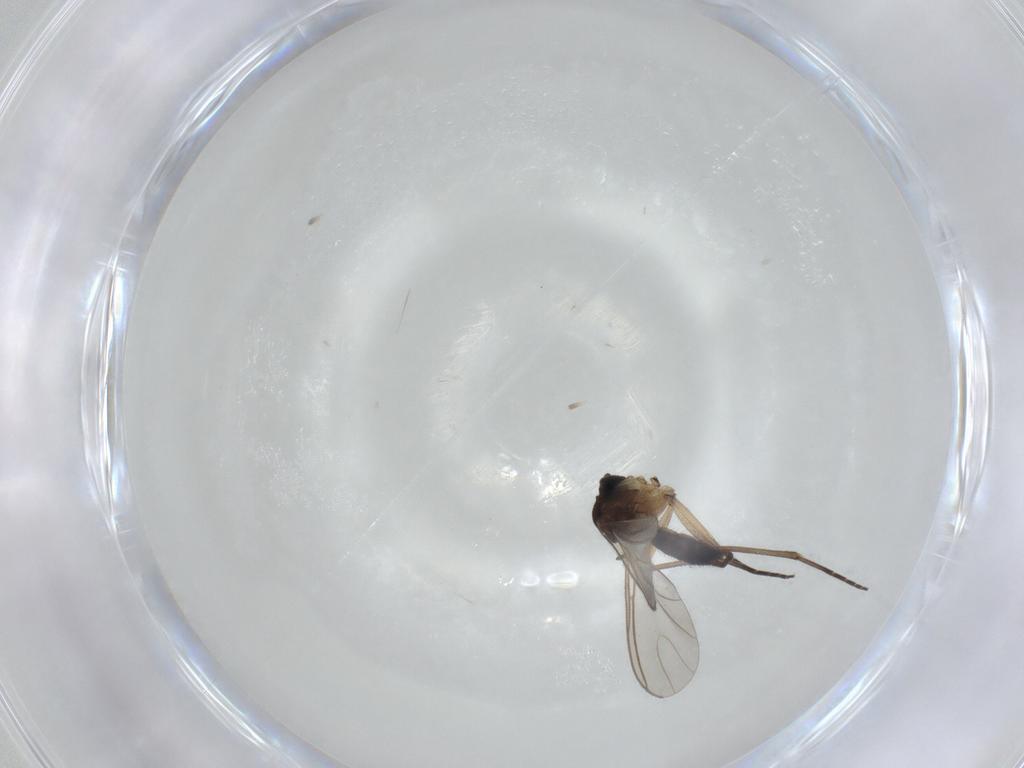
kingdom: Animalia
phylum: Arthropoda
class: Insecta
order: Diptera
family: Sciaridae
